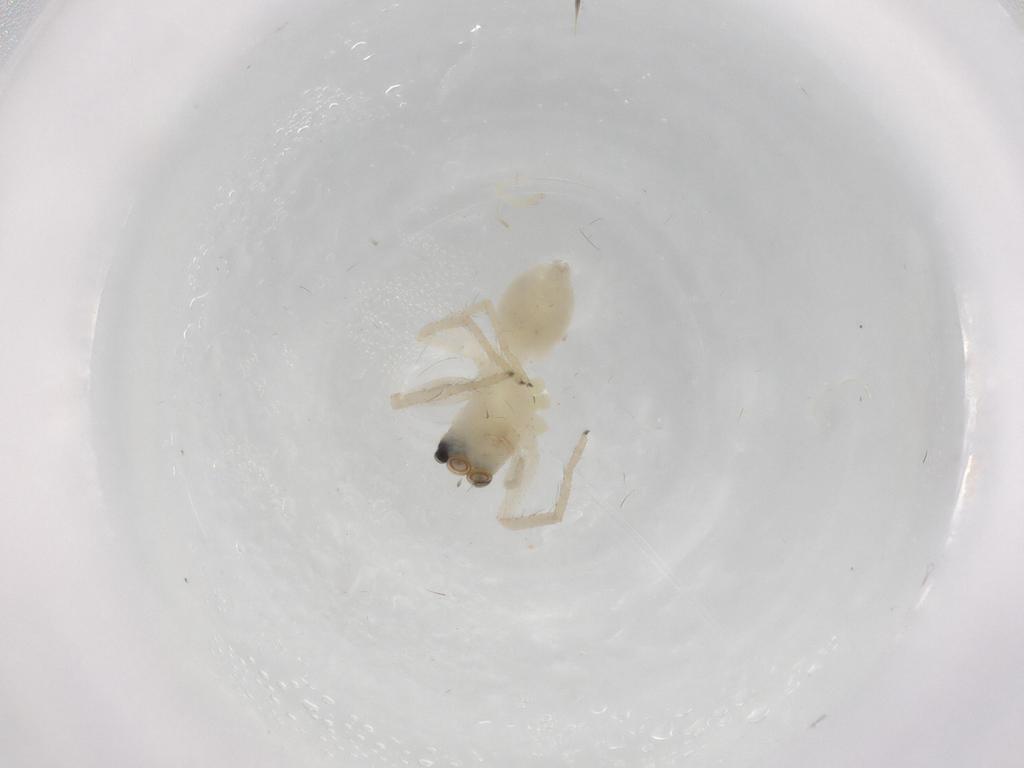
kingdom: Animalia
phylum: Arthropoda
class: Arachnida
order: Araneae
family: Salticidae
